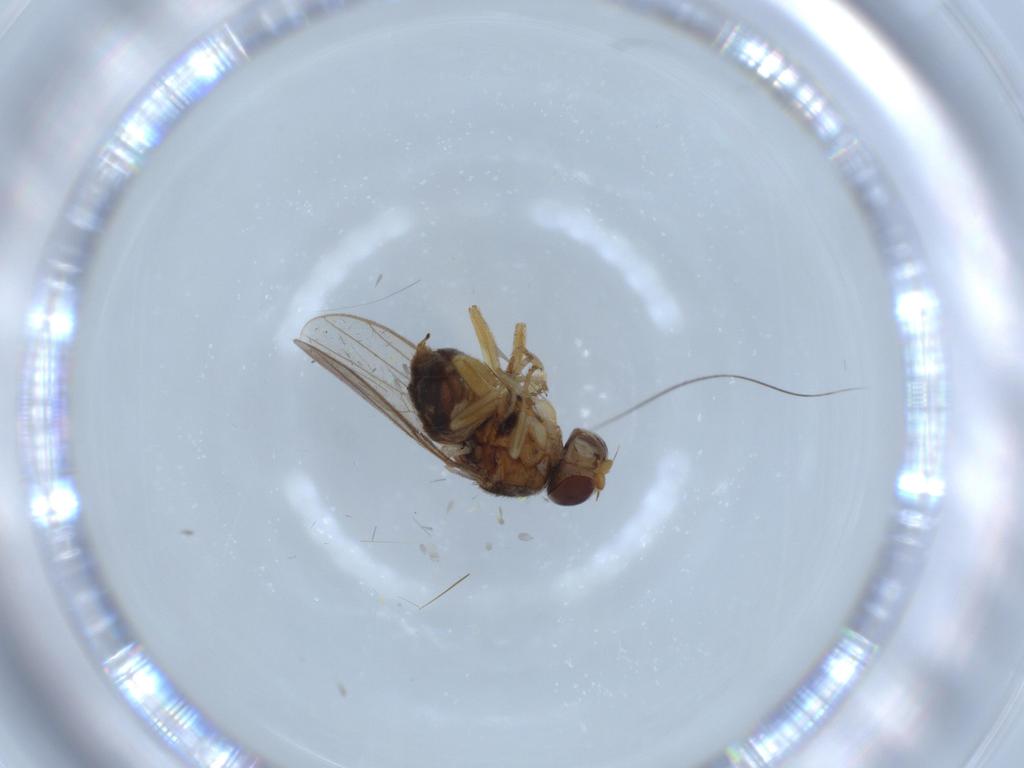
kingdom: Animalia
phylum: Arthropoda
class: Insecta
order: Diptera
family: Chloropidae
